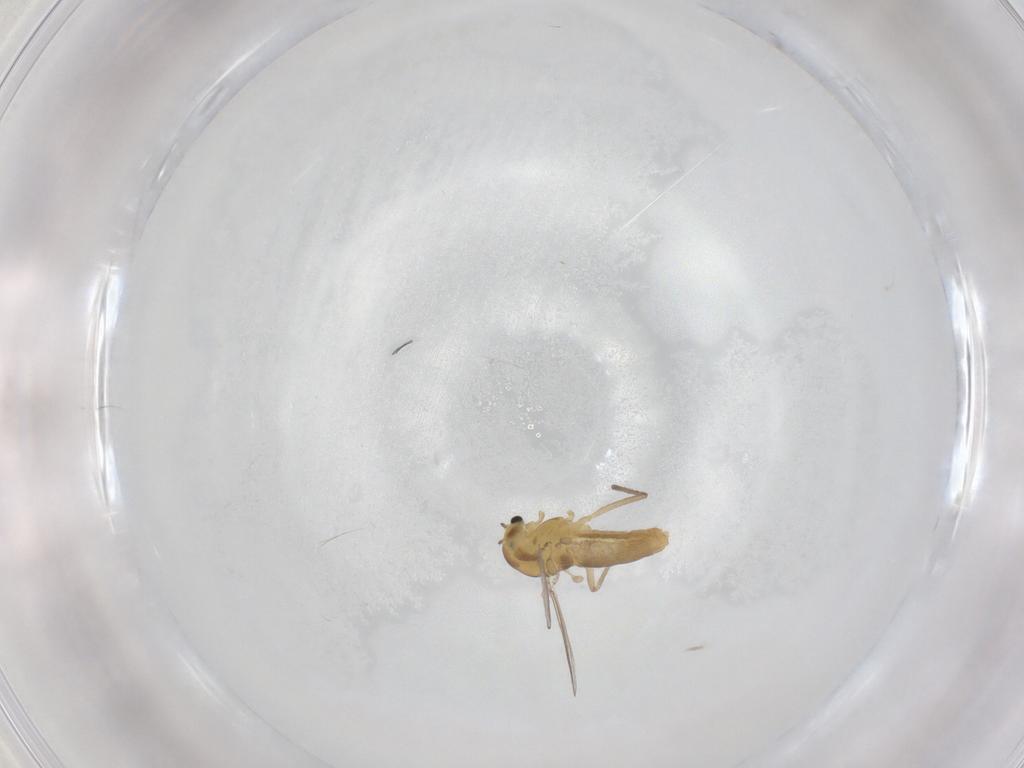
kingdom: Animalia
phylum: Arthropoda
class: Insecta
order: Diptera
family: Chironomidae
